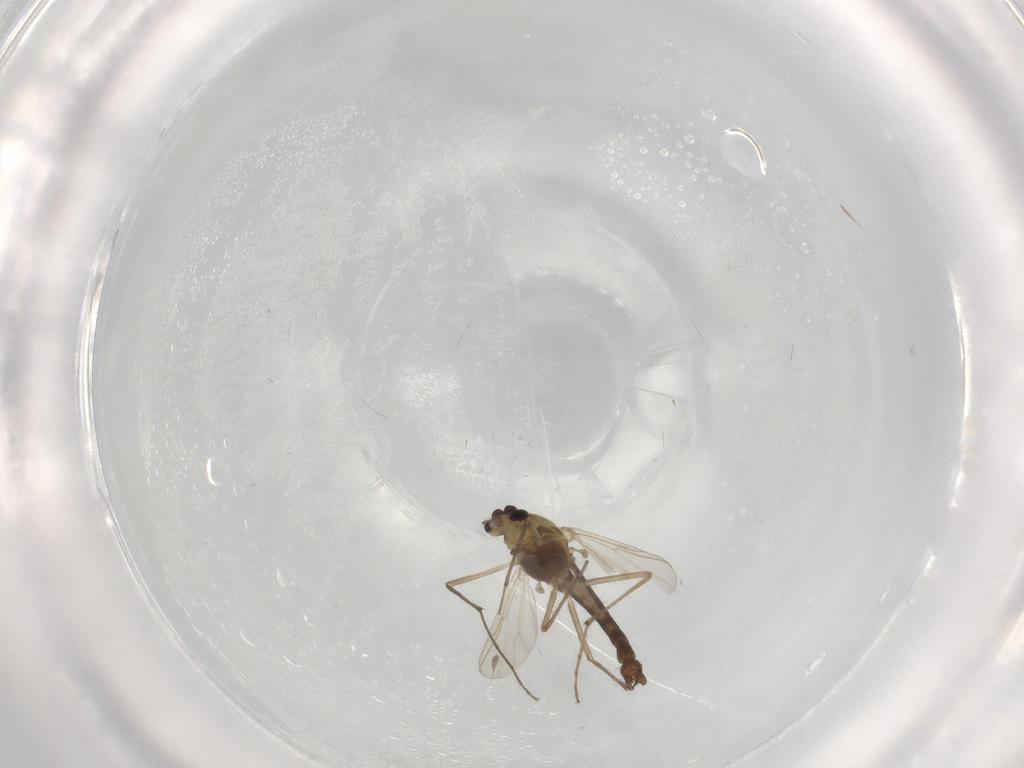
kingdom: Animalia
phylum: Arthropoda
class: Insecta
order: Diptera
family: Chironomidae
